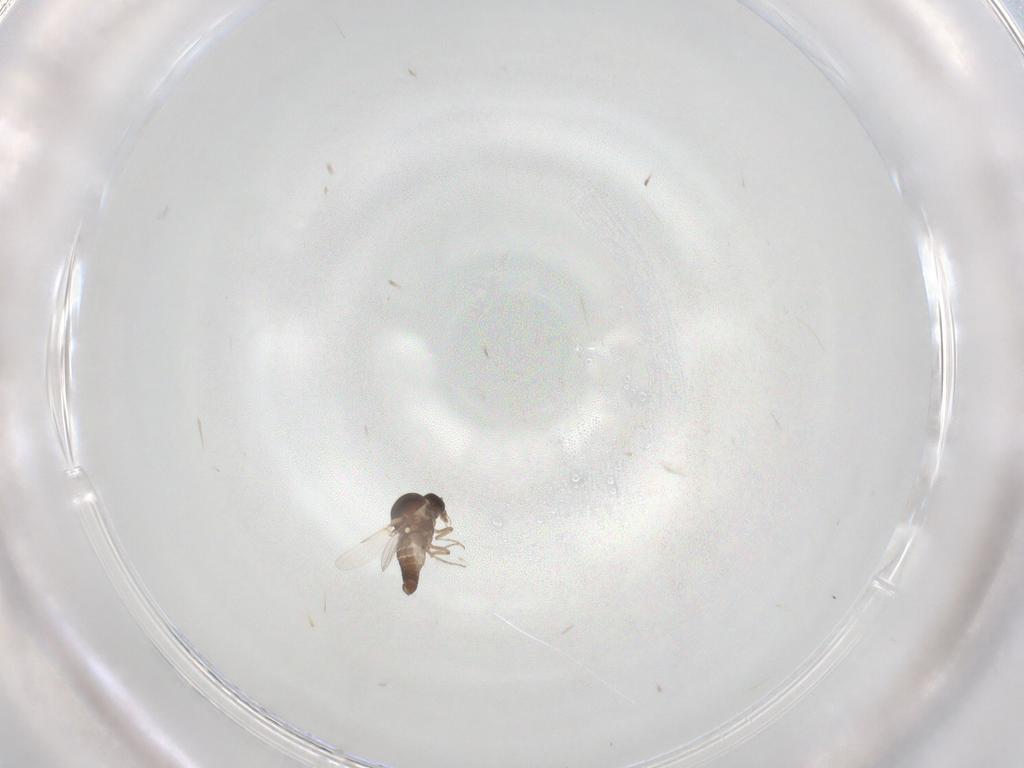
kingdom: Animalia
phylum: Arthropoda
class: Insecta
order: Diptera
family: Ceratopogonidae
